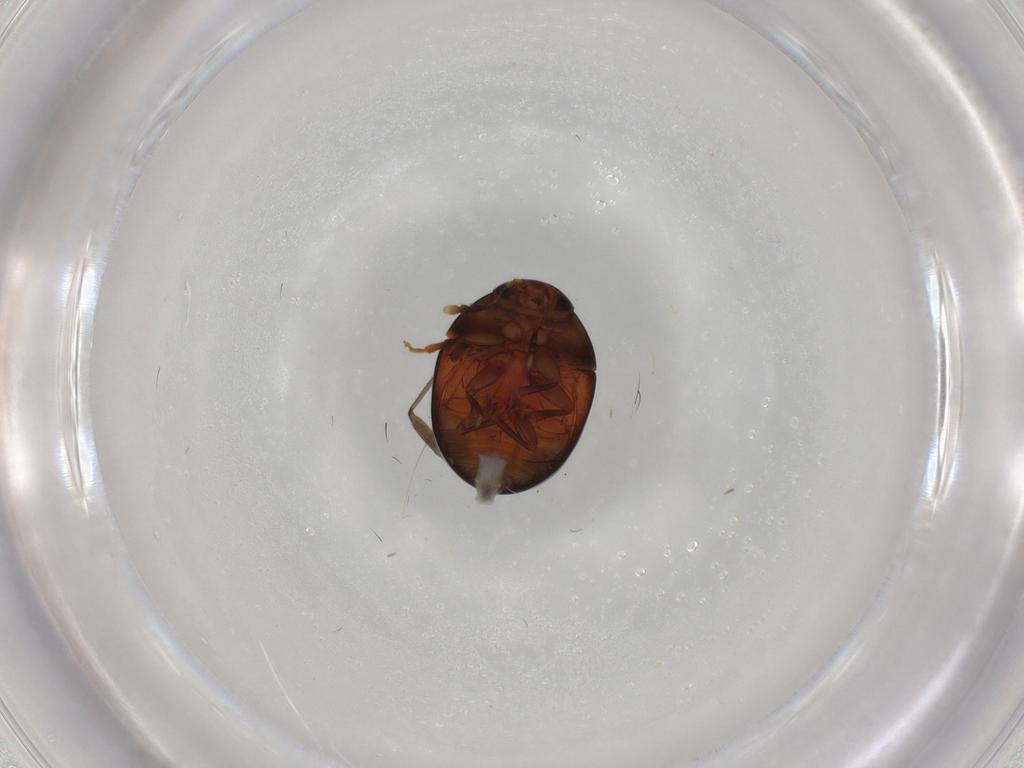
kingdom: Animalia
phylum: Arthropoda
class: Insecta
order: Coleoptera
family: Phalacridae
